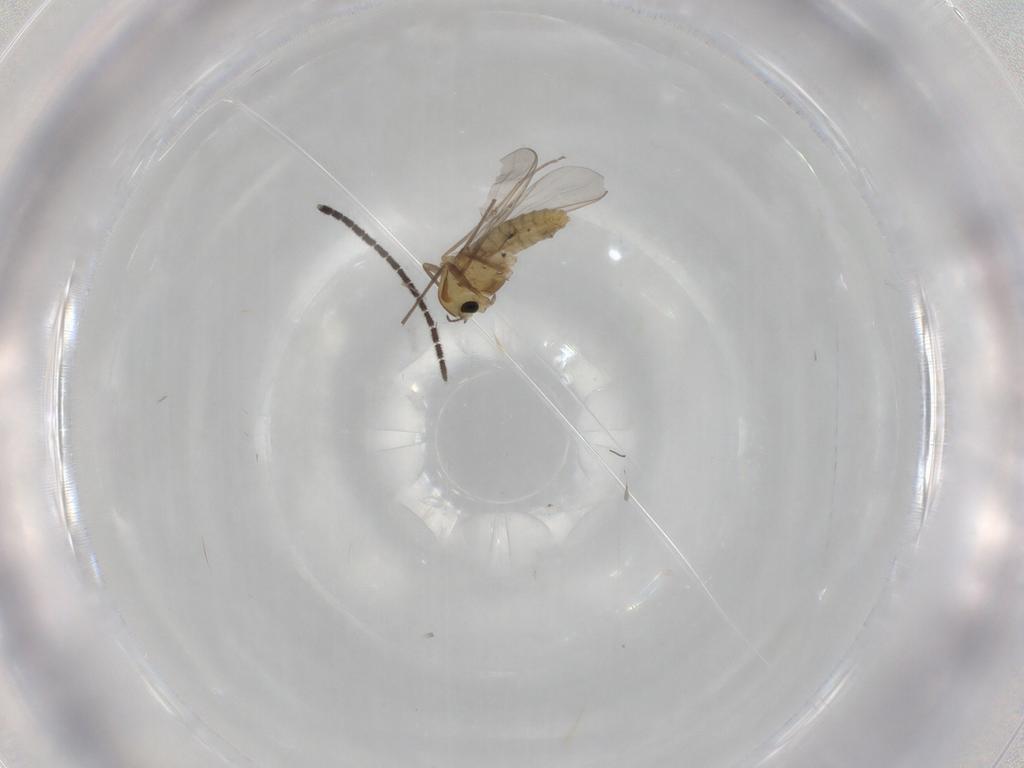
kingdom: Animalia
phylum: Arthropoda
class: Insecta
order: Diptera
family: Chironomidae
